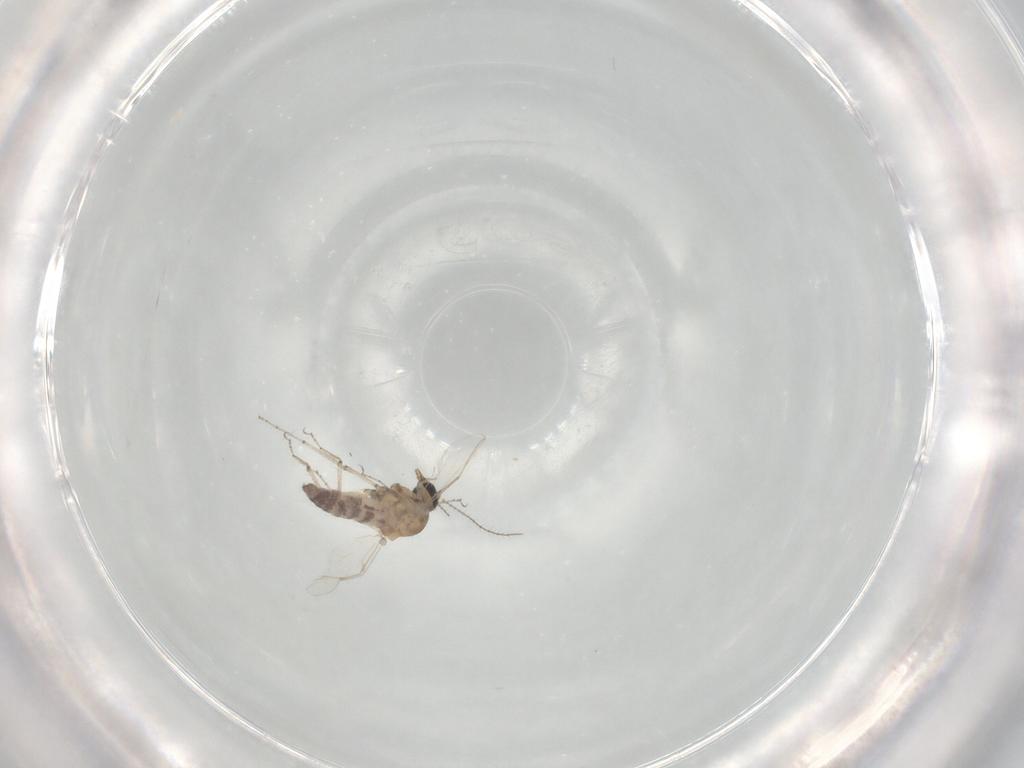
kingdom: Animalia
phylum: Arthropoda
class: Insecta
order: Diptera
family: Ceratopogonidae
